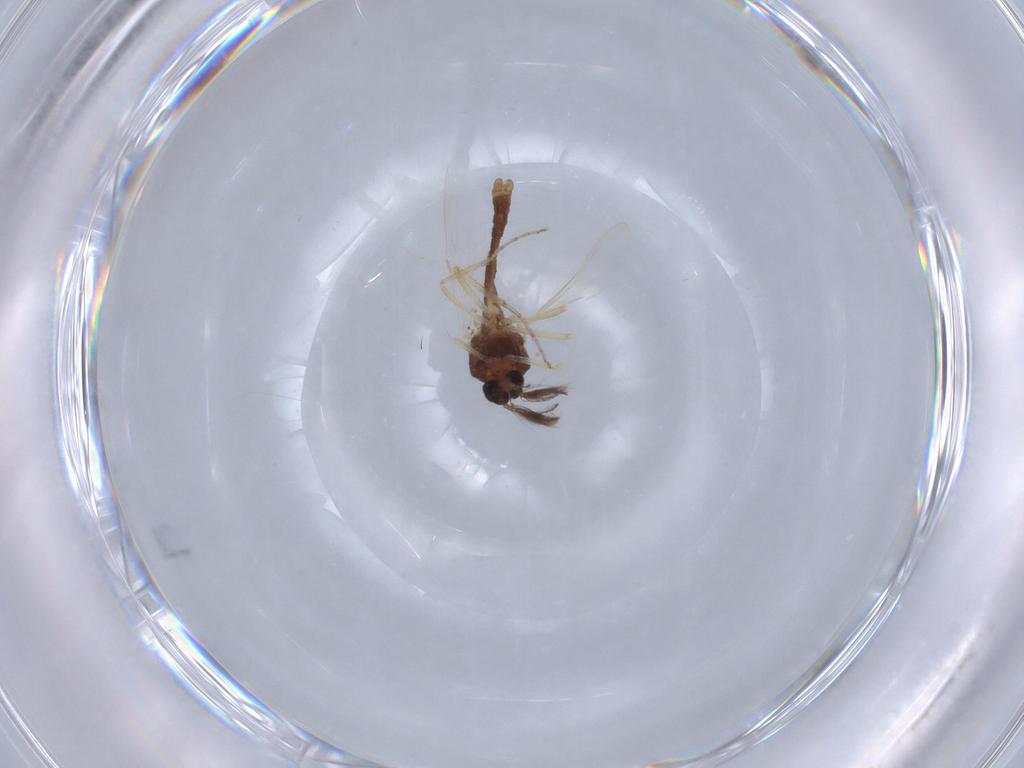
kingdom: Animalia
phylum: Arthropoda
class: Insecta
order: Diptera
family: Ceratopogonidae
